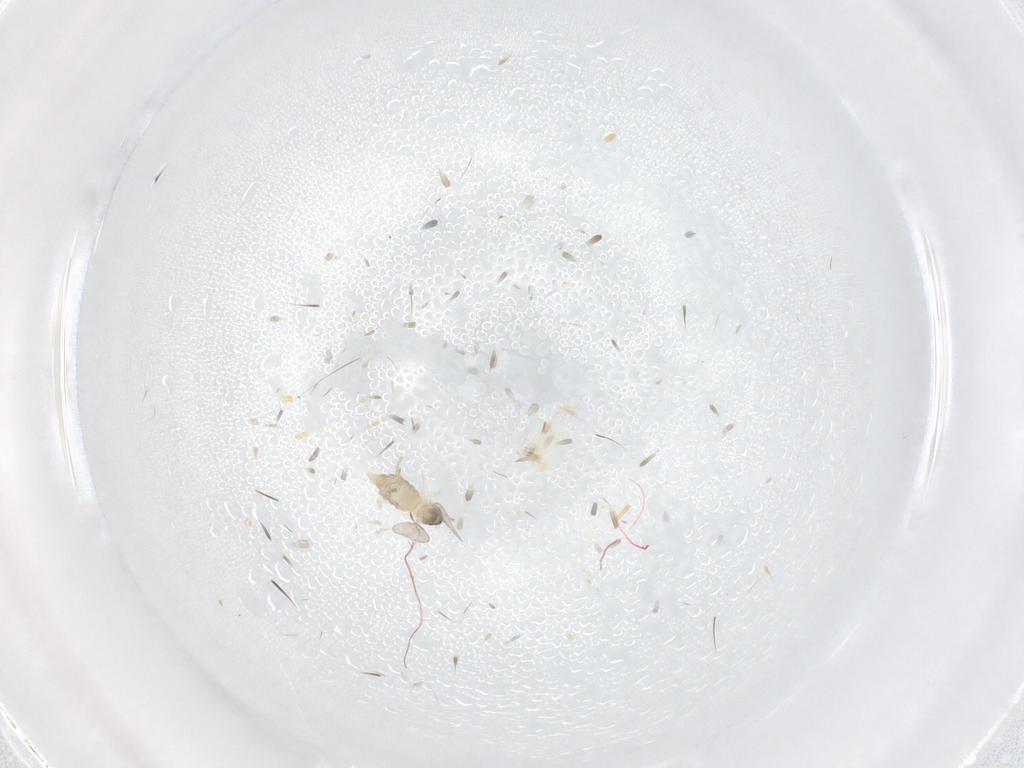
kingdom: Animalia
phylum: Arthropoda
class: Insecta
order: Diptera
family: Cecidomyiidae
